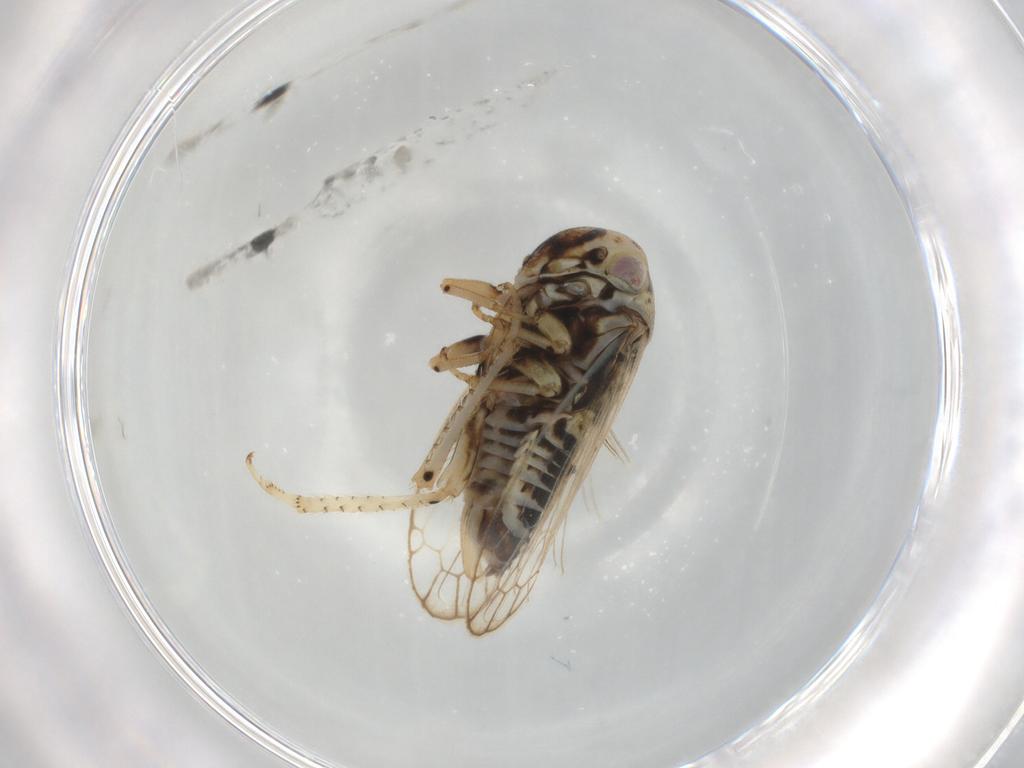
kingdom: Animalia
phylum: Arthropoda
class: Insecta
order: Hemiptera
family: Cicadellidae
